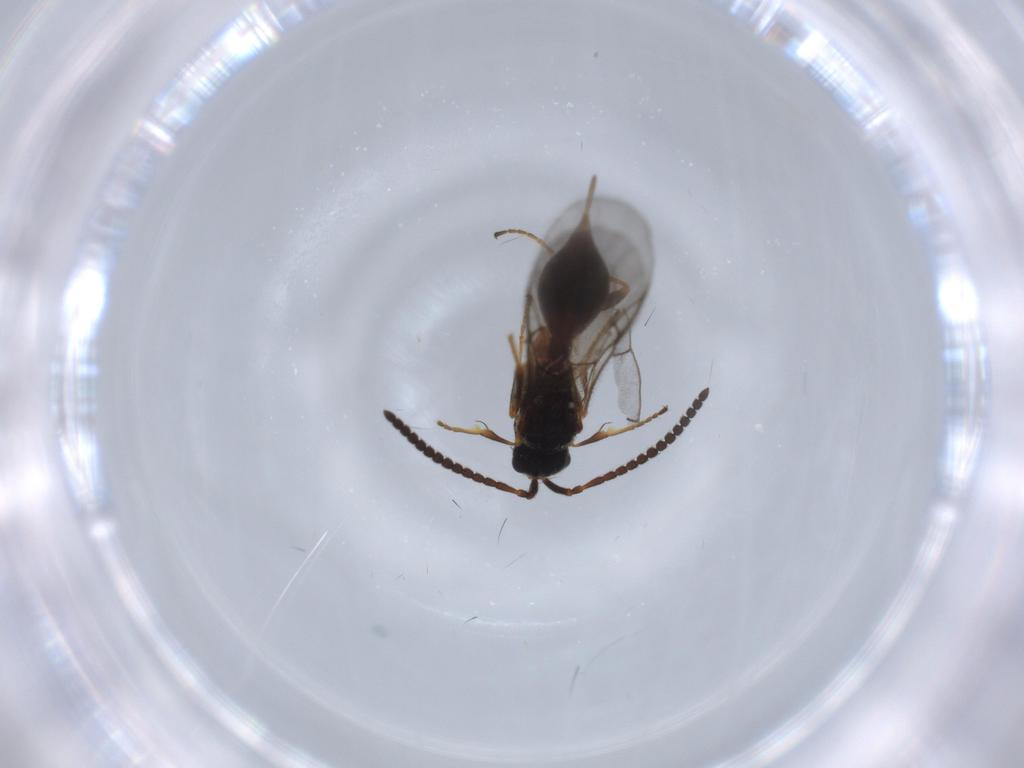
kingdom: Animalia
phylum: Arthropoda
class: Insecta
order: Hymenoptera
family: Diapriidae
